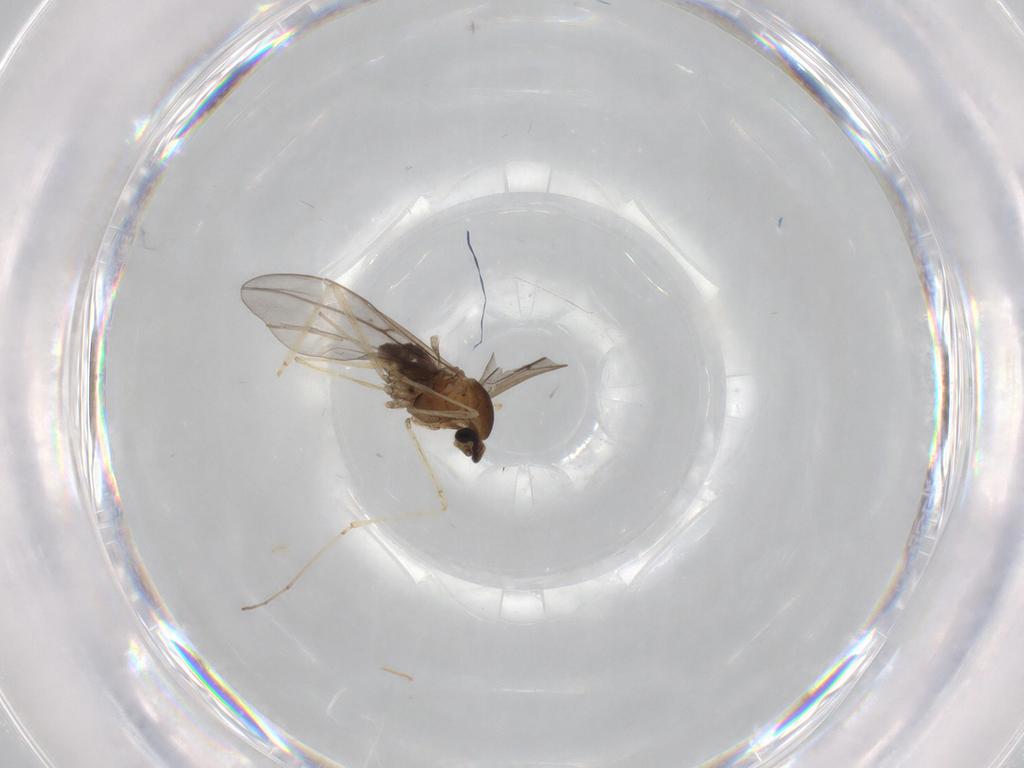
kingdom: Animalia
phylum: Arthropoda
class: Insecta
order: Diptera
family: Cecidomyiidae
